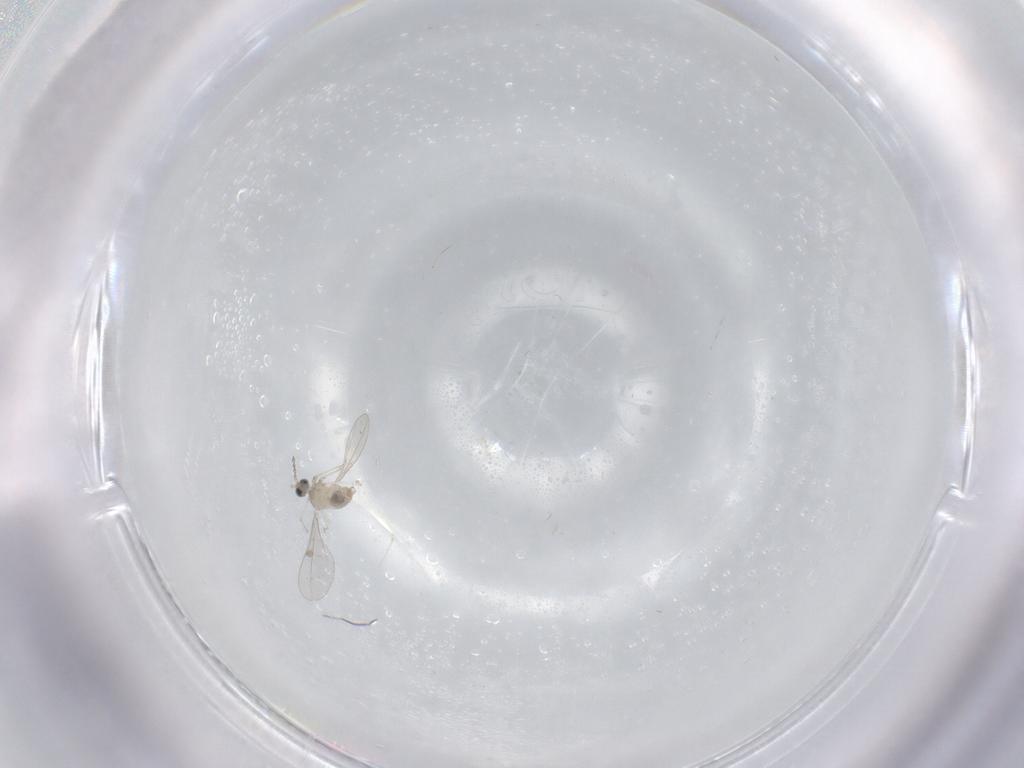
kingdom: Animalia
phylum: Arthropoda
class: Insecta
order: Diptera
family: Cecidomyiidae
